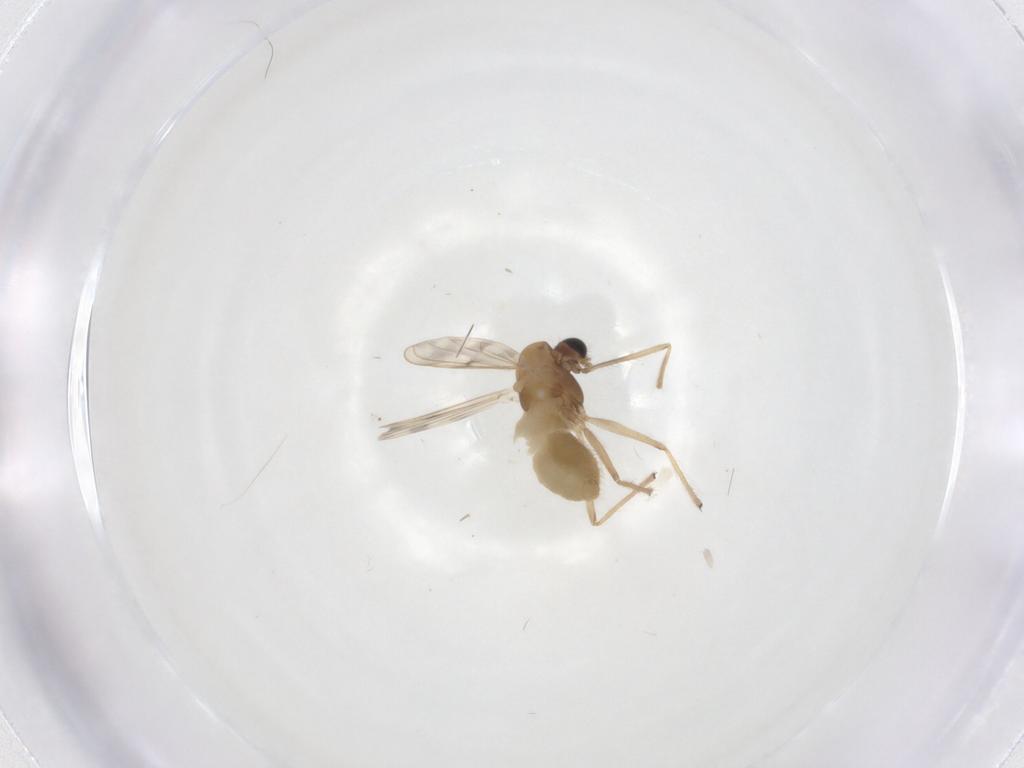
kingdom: Animalia
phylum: Arthropoda
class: Insecta
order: Diptera
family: Chironomidae
